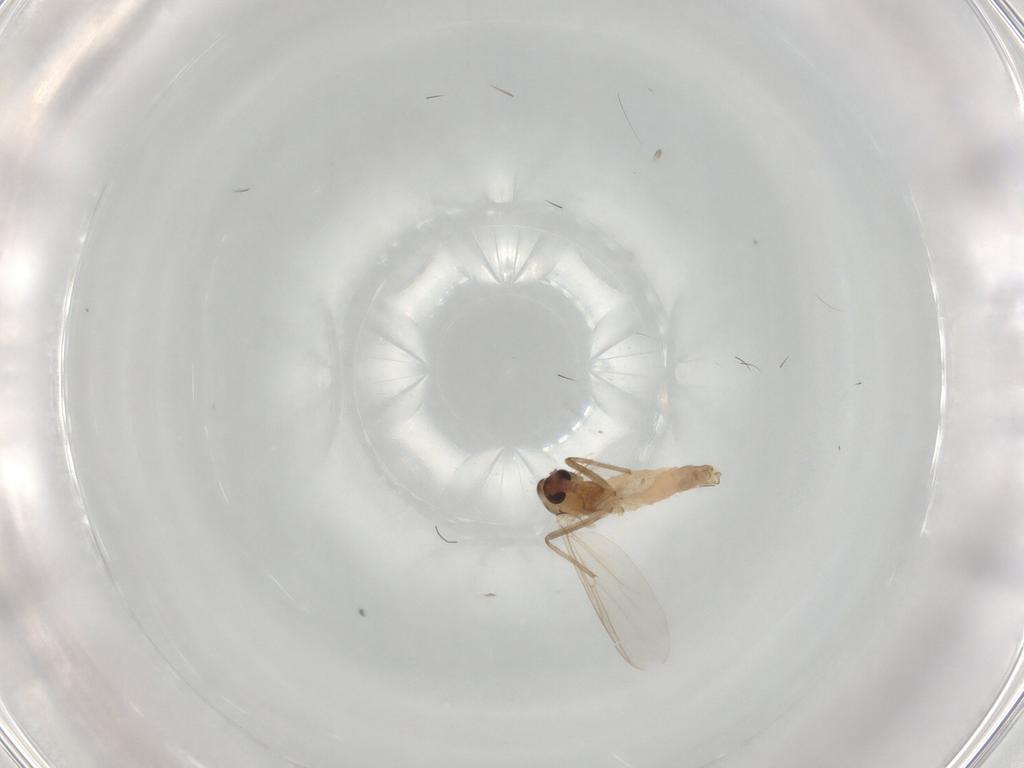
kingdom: Animalia
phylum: Arthropoda
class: Insecta
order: Diptera
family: Chironomidae
